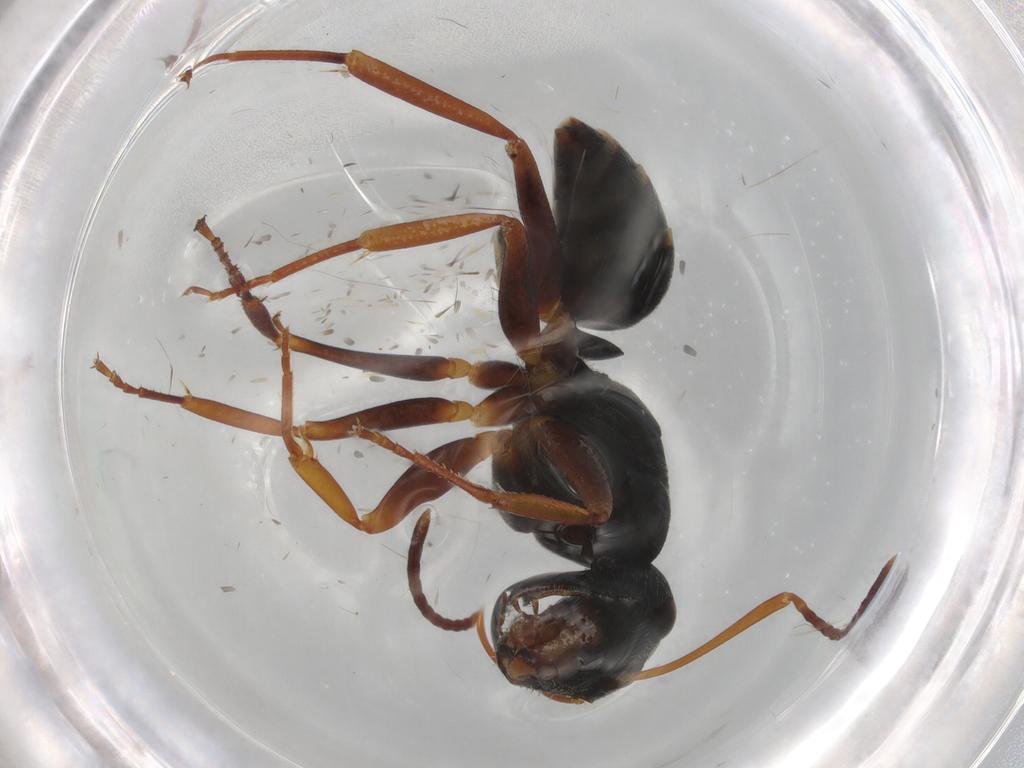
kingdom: Animalia
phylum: Arthropoda
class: Insecta
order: Hymenoptera
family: Formicidae
